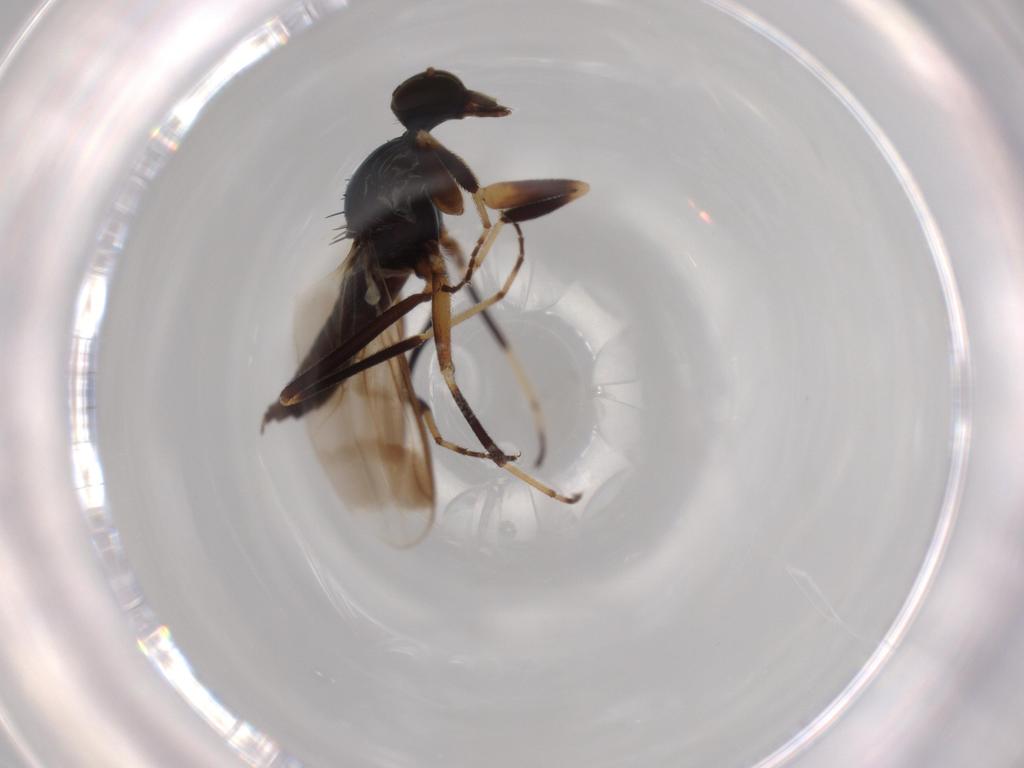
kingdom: Animalia
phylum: Arthropoda
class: Insecta
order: Diptera
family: Hybotidae
